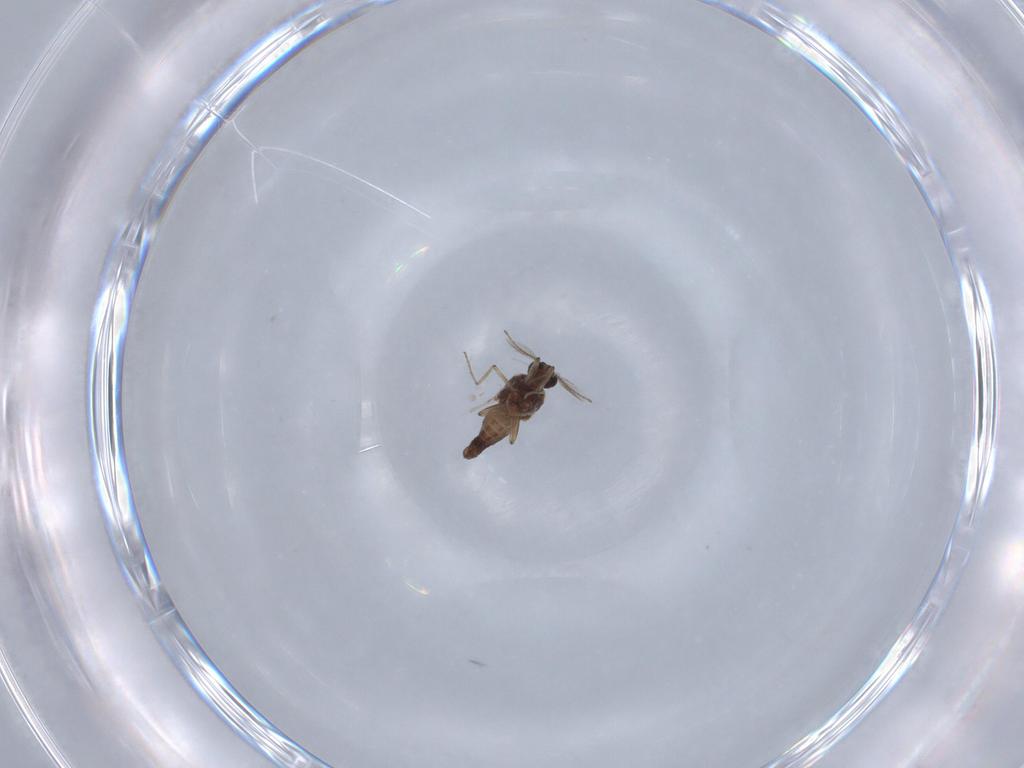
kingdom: Animalia
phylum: Arthropoda
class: Insecta
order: Diptera
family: Ceratopogonidae
